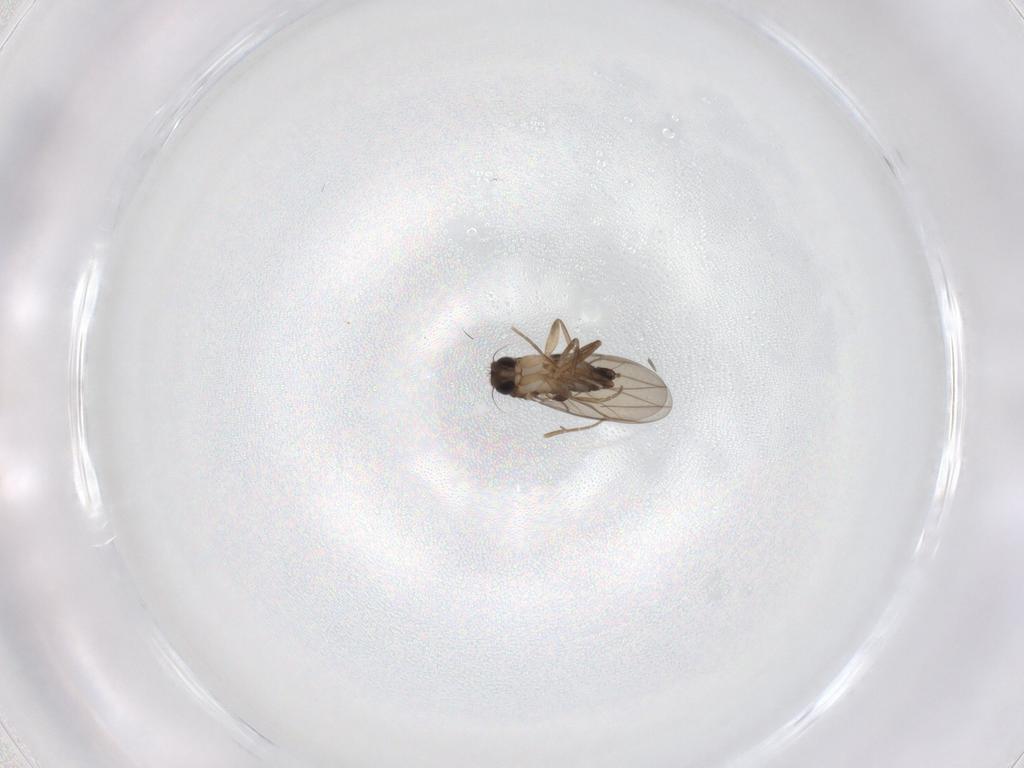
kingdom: Animalia
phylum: Arthropoda
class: Insecta
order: Diptera
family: Phoridae
